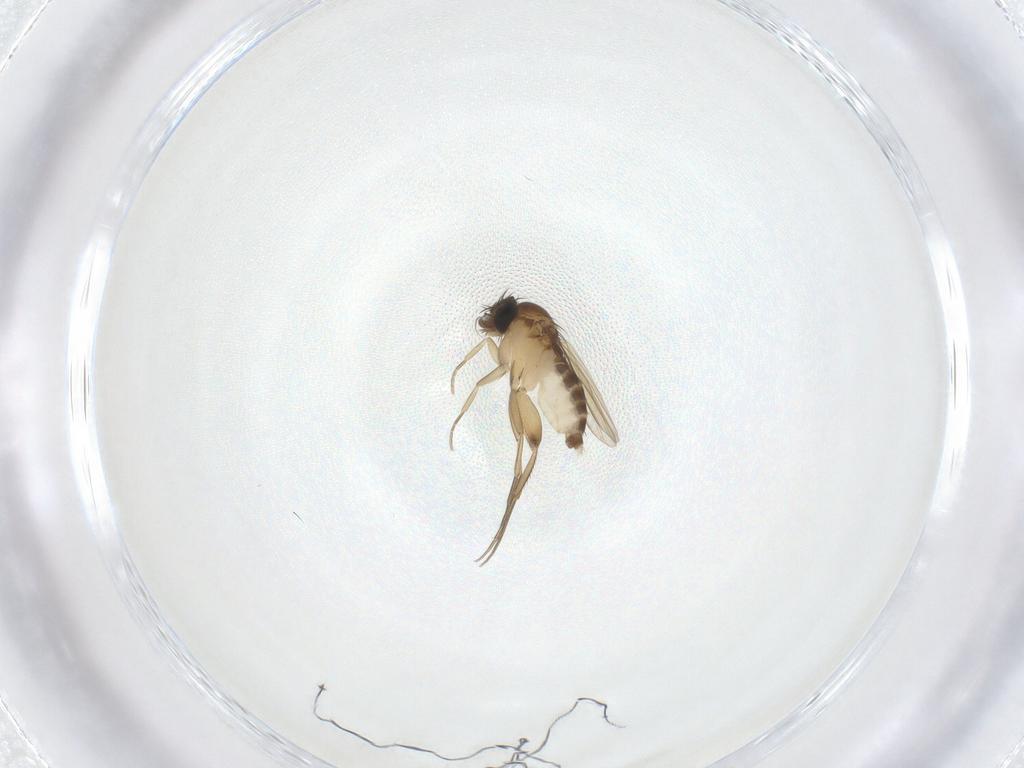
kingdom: Animalia
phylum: Arthropoda
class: Insecta
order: Diptera
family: Phoridae
